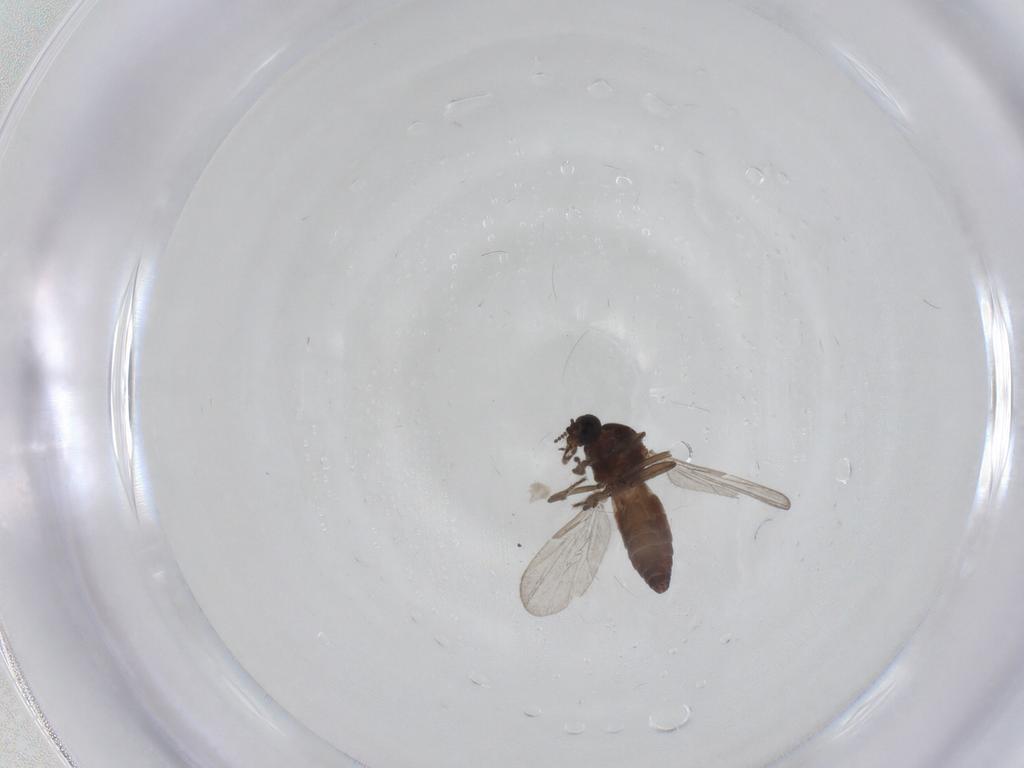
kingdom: Animalia
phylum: Arthropoda
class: Insecta
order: Diptera
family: Ceratopogonidae
